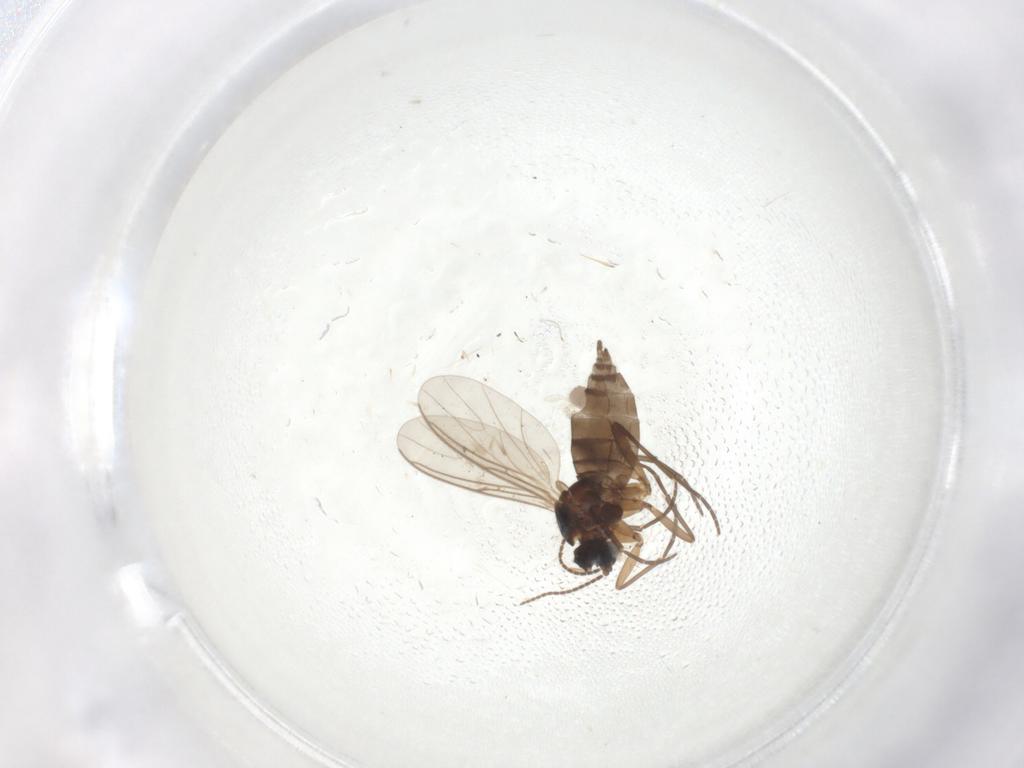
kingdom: Animalia
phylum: Arthropoda
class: Insecta
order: Diptera
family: Sciaridae
